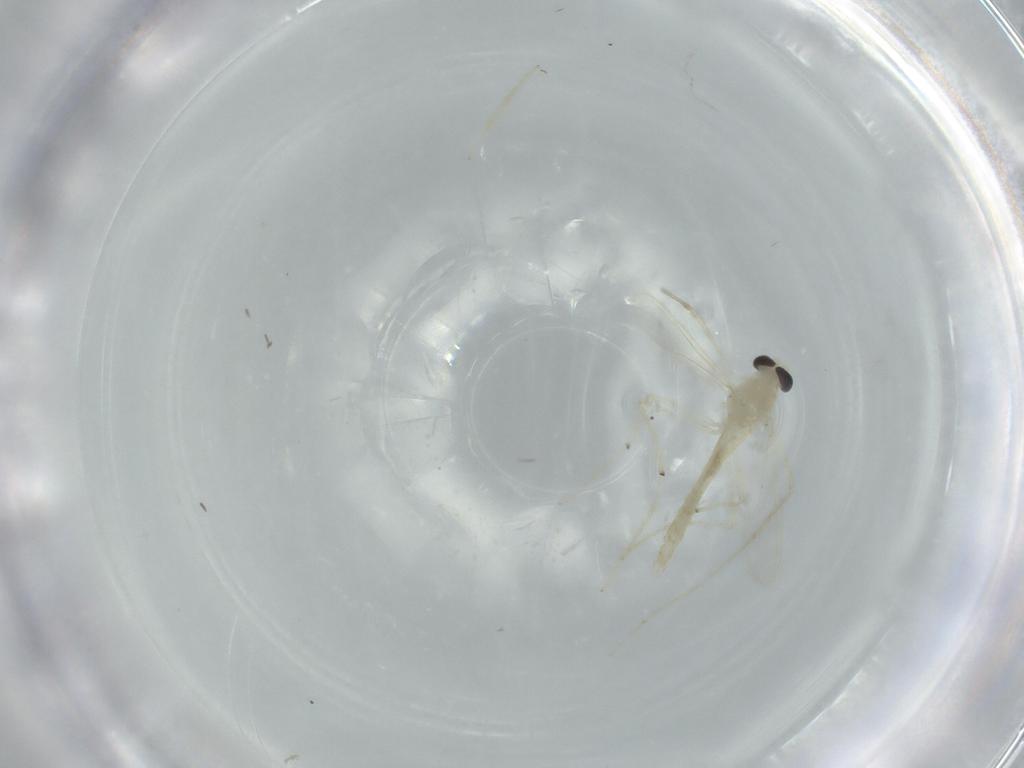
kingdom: Animalia
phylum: Arthropoda
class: Insecta
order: Diptera
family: Chironomidae
